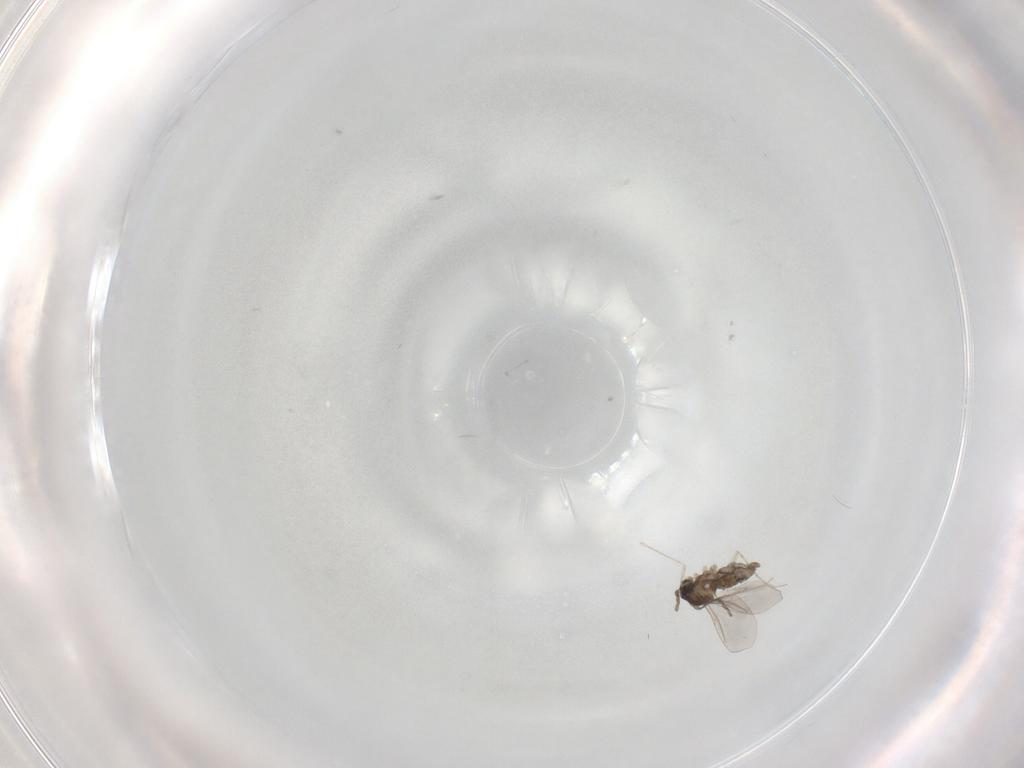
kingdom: Animalia
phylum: Arthropoda
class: Insecta
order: Diptera
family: Cecidomyiidae
